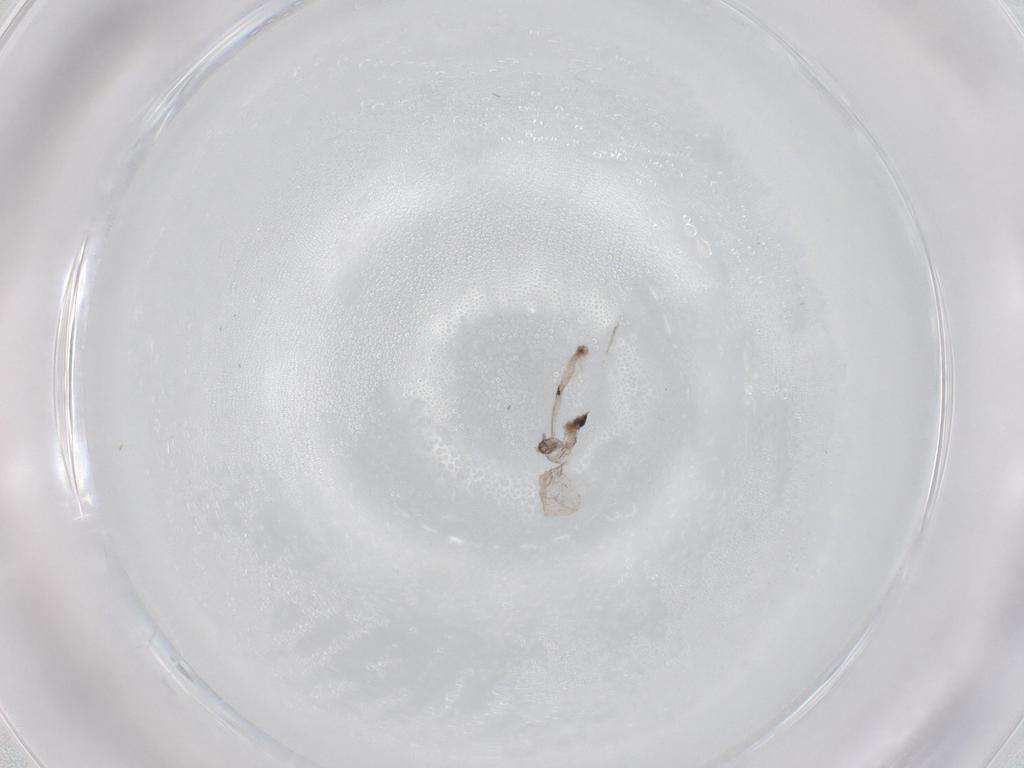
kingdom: Animalia
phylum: Arthropoda
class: Insecta
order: Diptera
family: Cecidomyiidae
